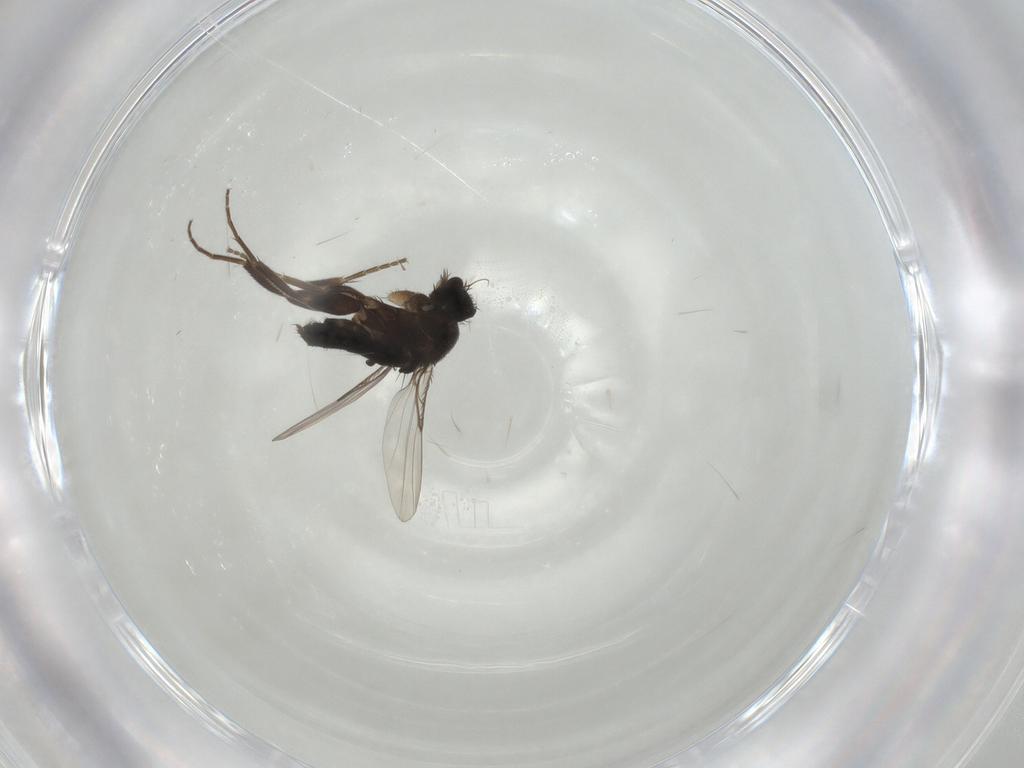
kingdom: Animalia
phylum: Arthropoda
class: Insecta
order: Diptera
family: Phoridae
